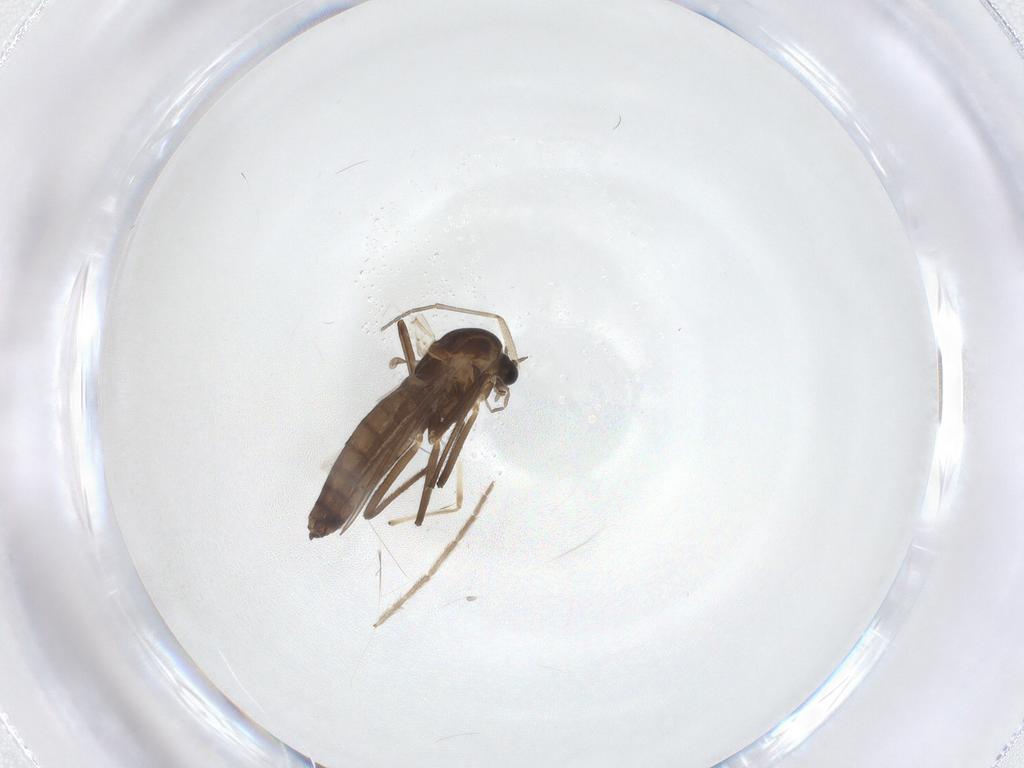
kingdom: Animalia
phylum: Arthropoda
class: Insecta
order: Diptera
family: Chironomidae
